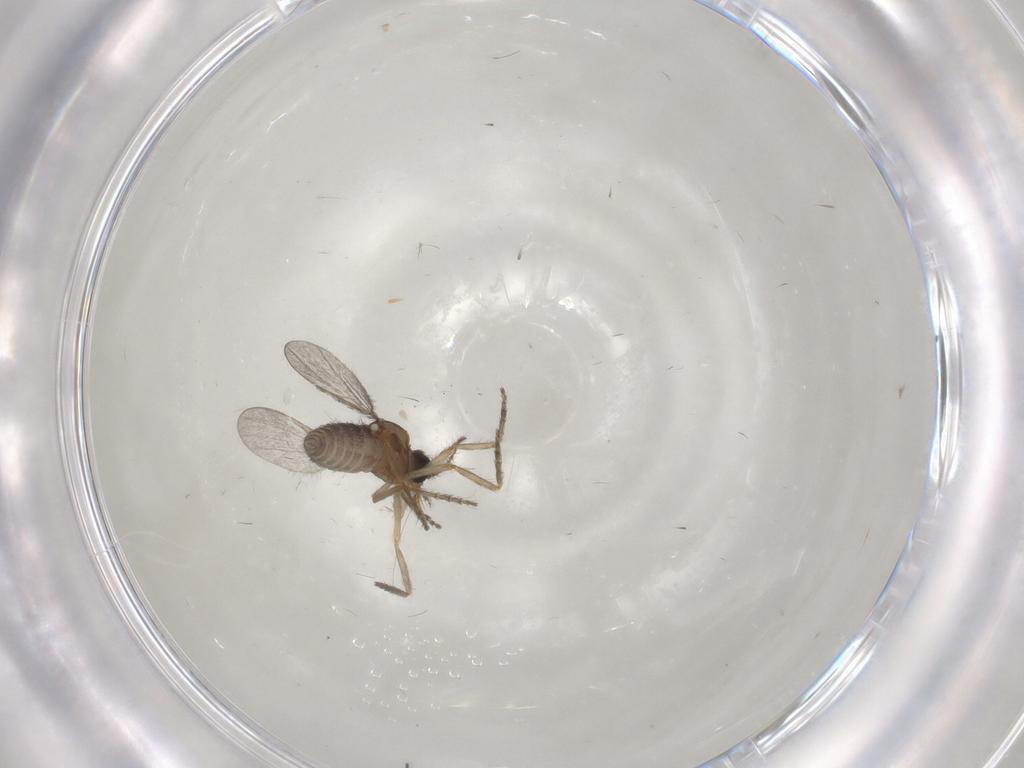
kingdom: Animalia
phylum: Arthropoda
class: Insecta
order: Diptera
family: Ceratopogonidae
